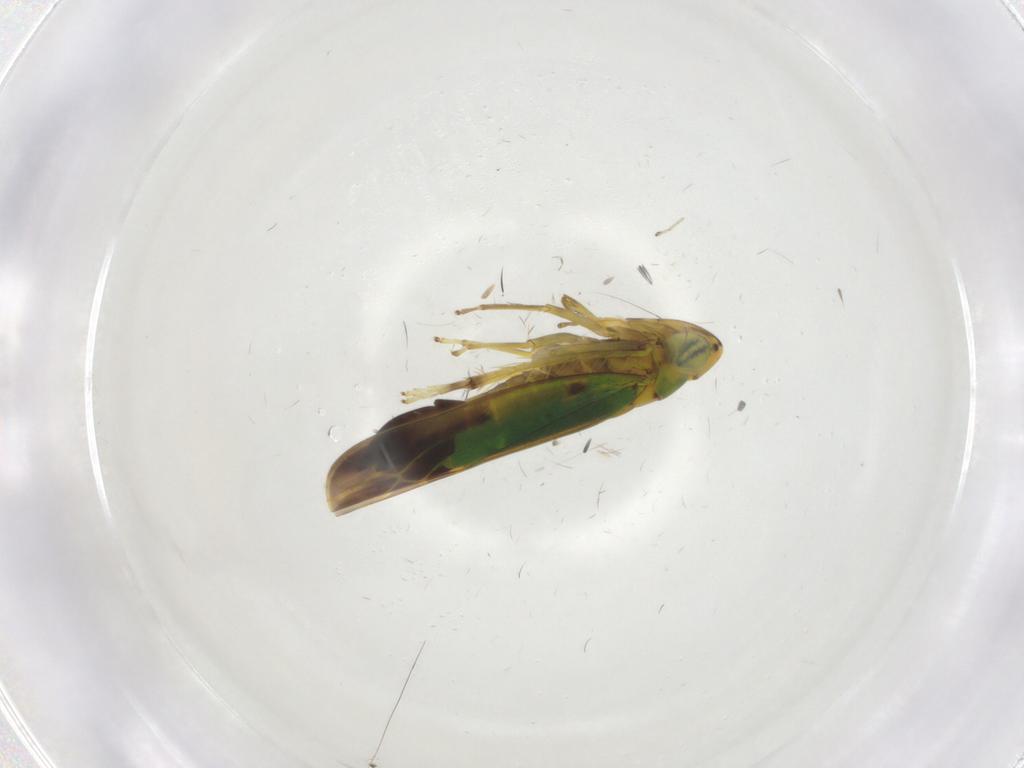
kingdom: Animalia
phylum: Arthropoda
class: Insecta
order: Hemiptera
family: Cicadellidae
